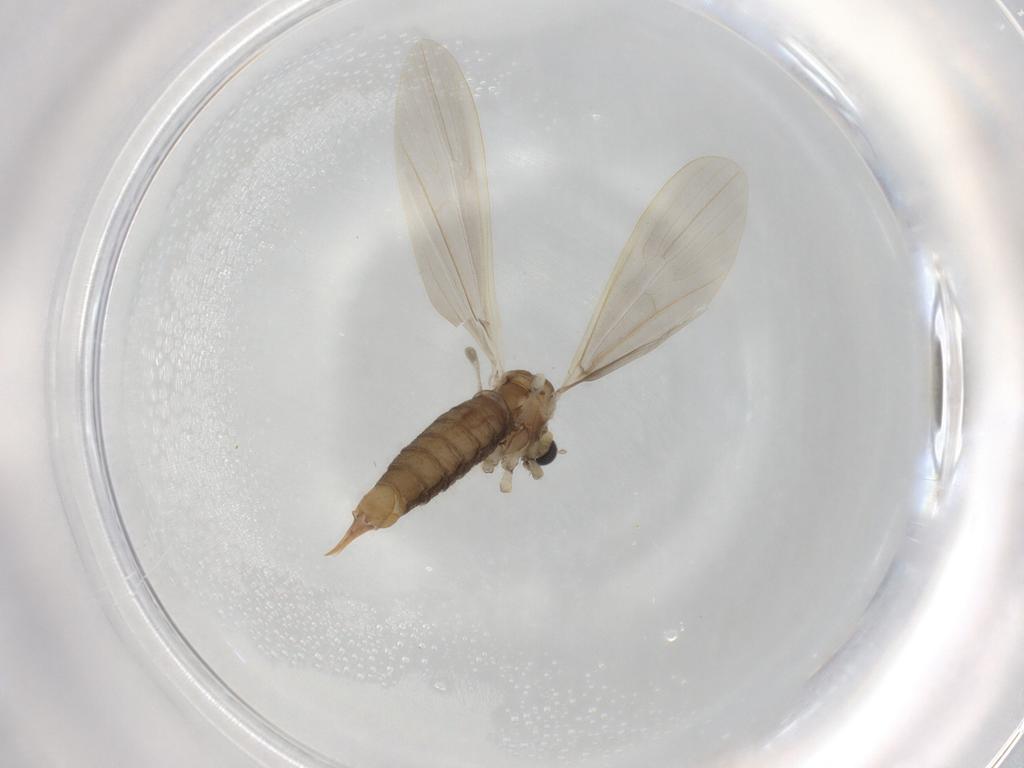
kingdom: Animalia
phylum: Arthropoda
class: Insecta
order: Diptera
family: Limoniidae
